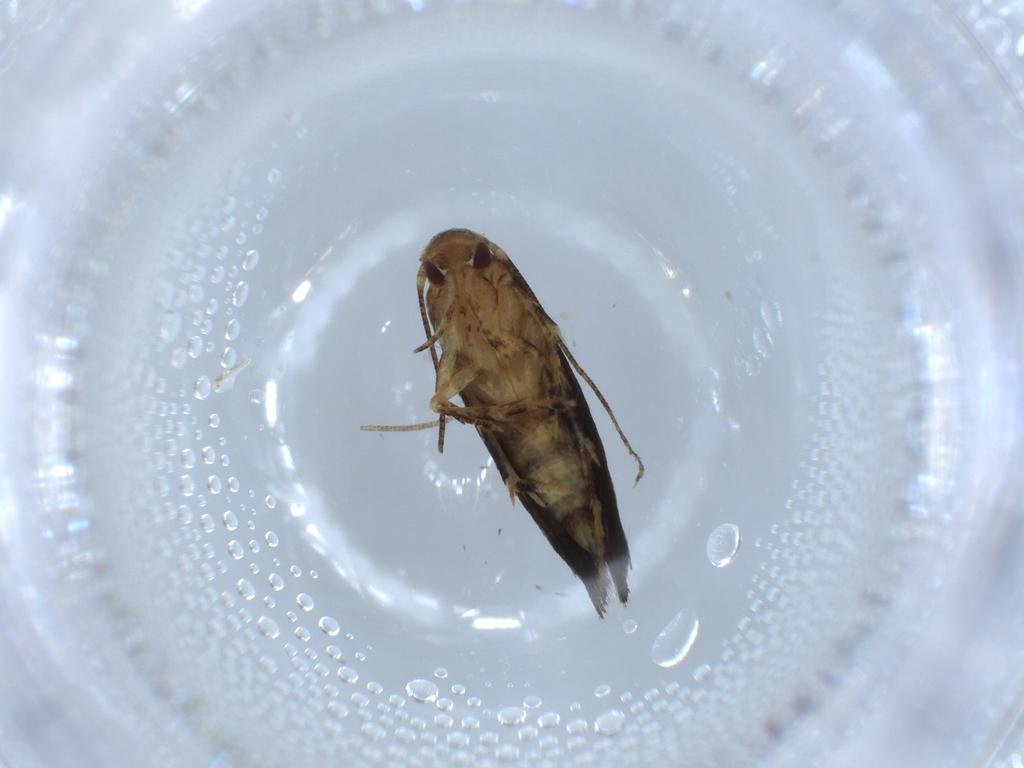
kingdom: Animalia
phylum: Arthropoda
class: Insecta
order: Lepidoptera
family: Momphidae
